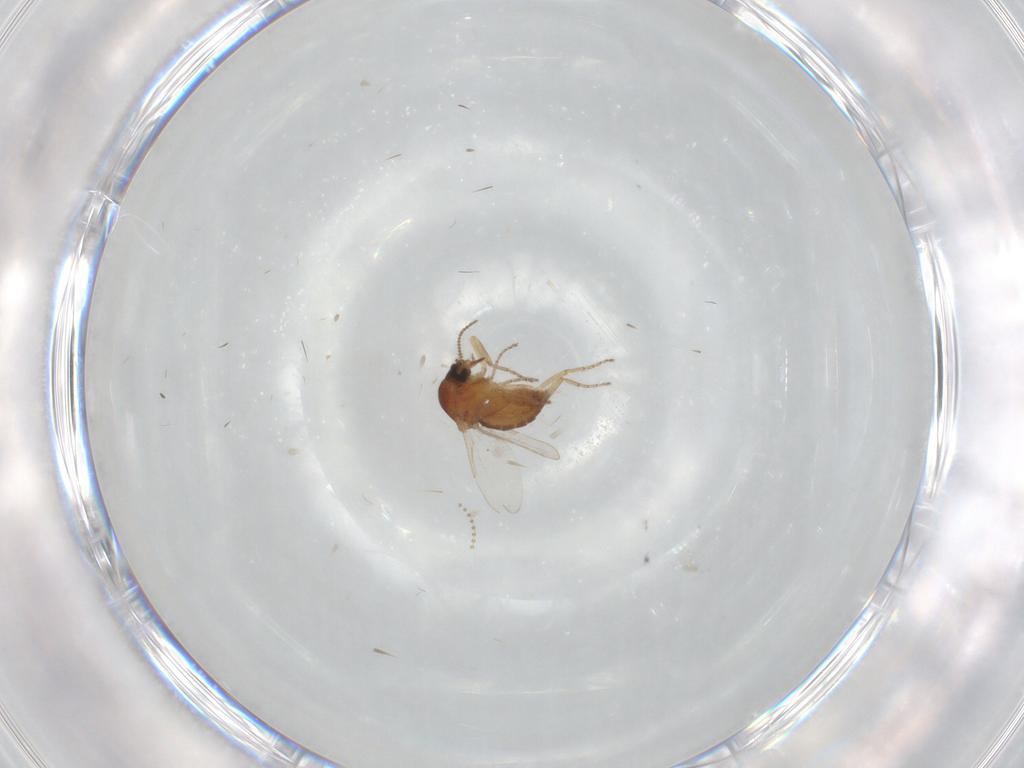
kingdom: Animalia
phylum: Arthropoda
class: Insecta
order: Diptera
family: Ceratopogonidae
